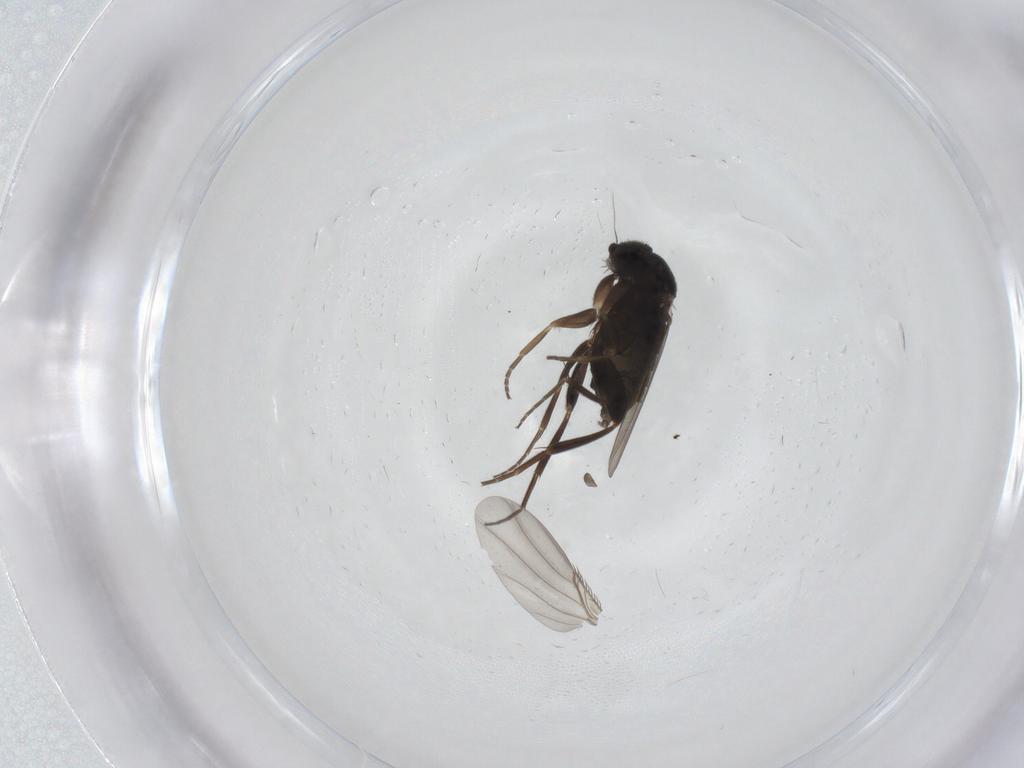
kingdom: Animalia
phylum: Arthropoda
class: Insecta
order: Diptera
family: Phoridae
